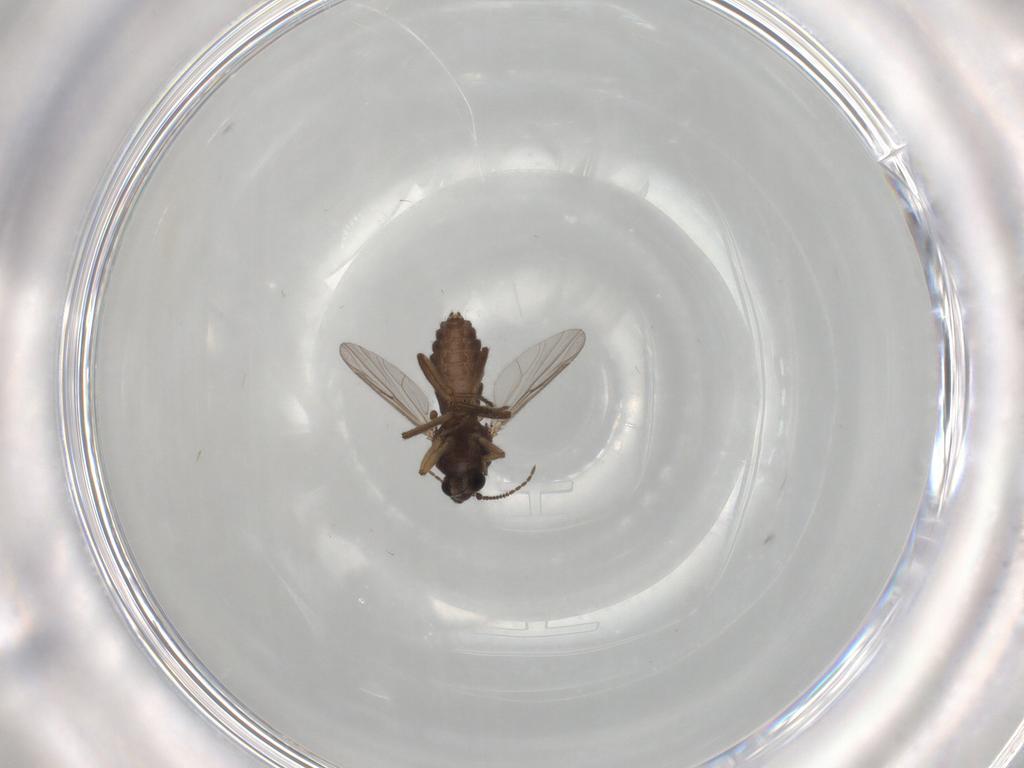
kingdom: Animalia
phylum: Arthropoda
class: Insecta
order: Diptera
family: Ceratopogonidae
